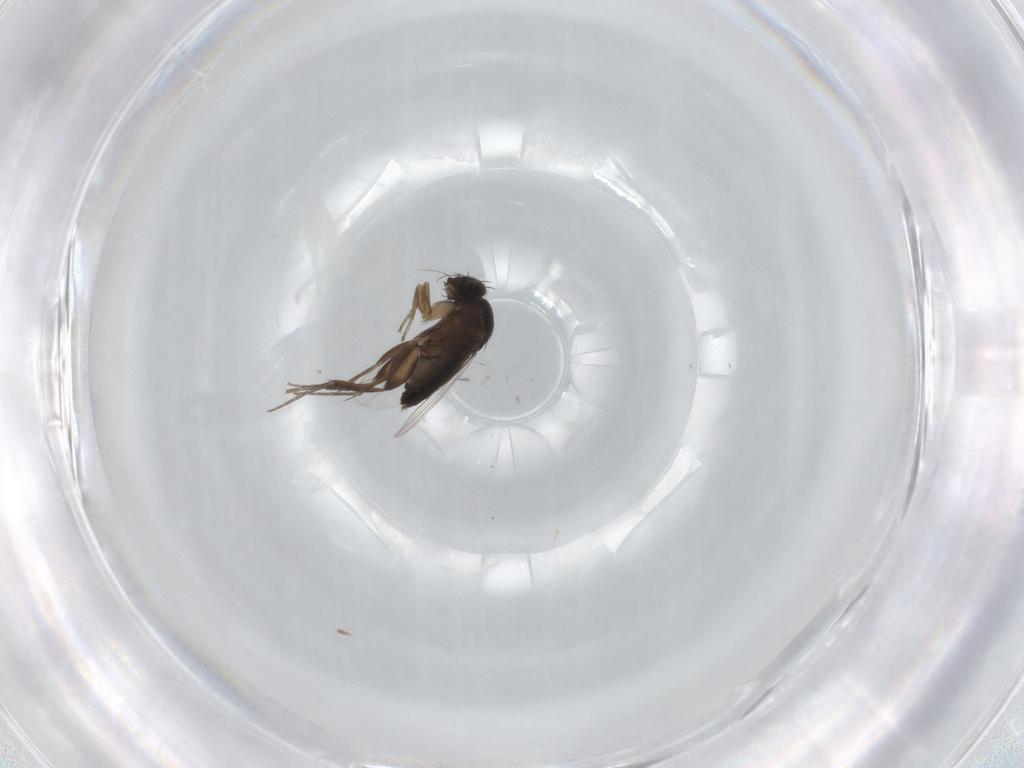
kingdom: Animalia
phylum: Arthropoda
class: Insecta
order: Diptera
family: Phoridae
